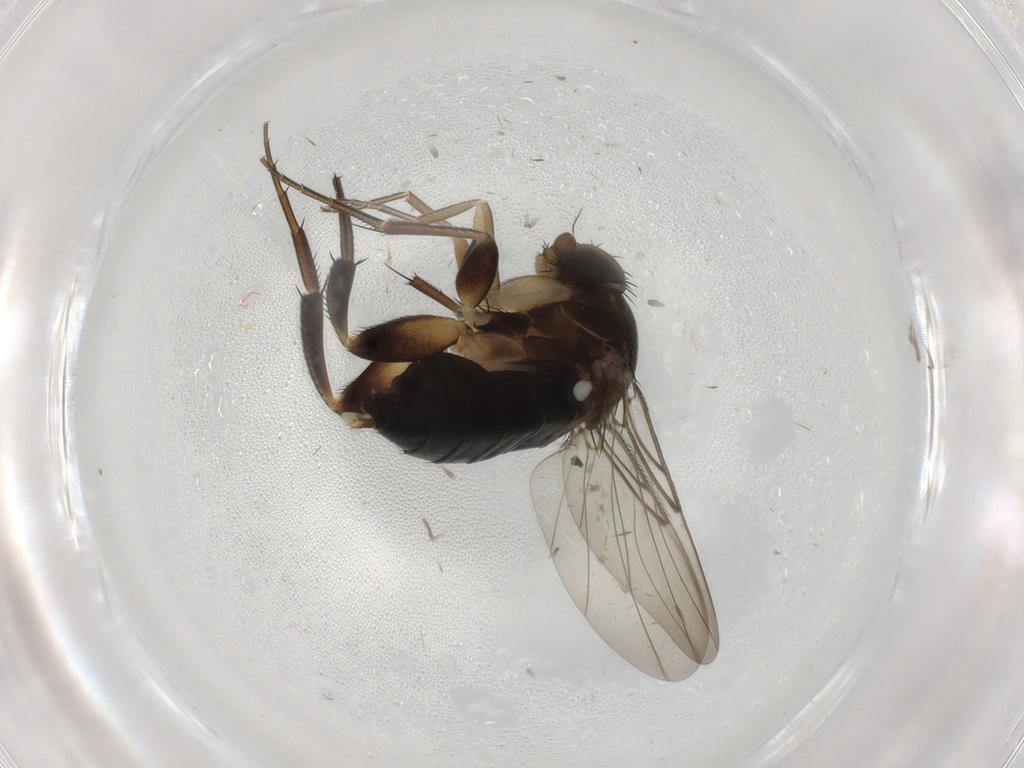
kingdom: Animalia
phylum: Arthropoda
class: Insecta
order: Diptera
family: Phoridae
